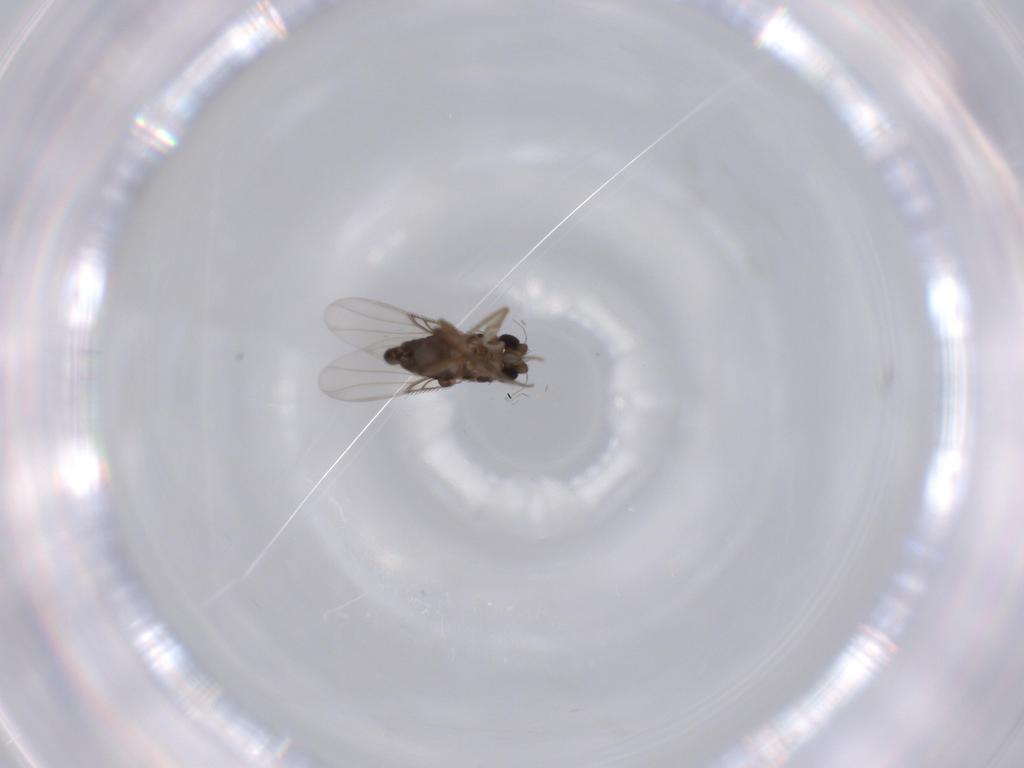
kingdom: Animalia
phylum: Arthropoda
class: Insecta
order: Diptera
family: Phoridae
